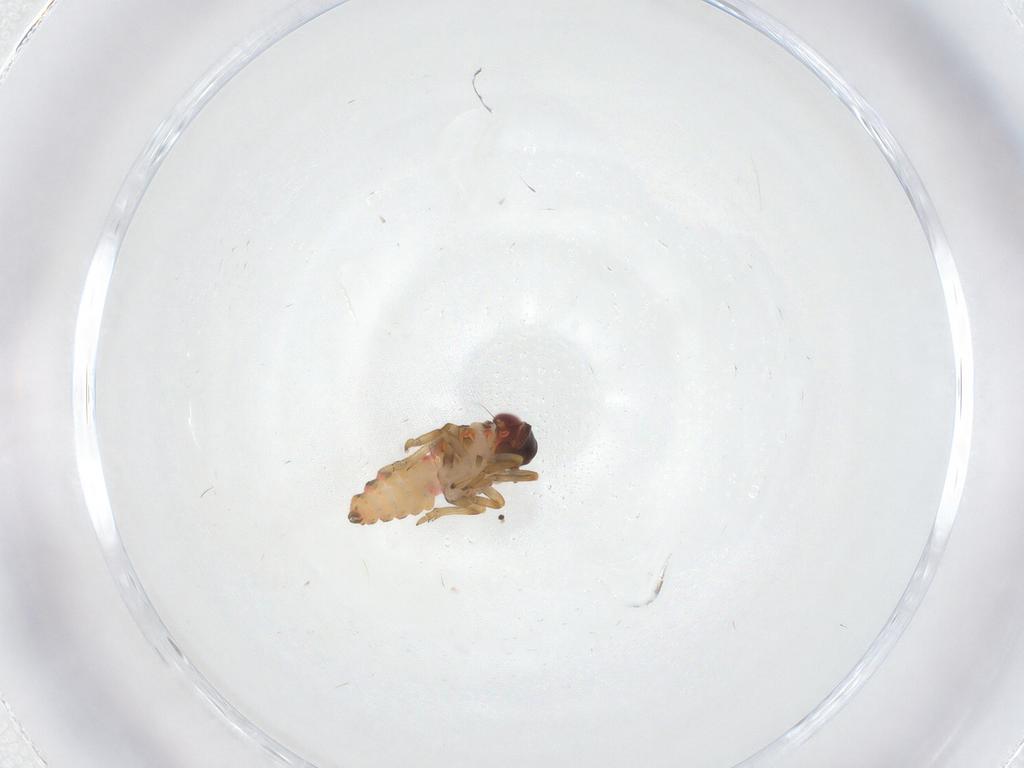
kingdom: Animalia
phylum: Arthropoda
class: Insecta
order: Hemiptera
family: Issidae
